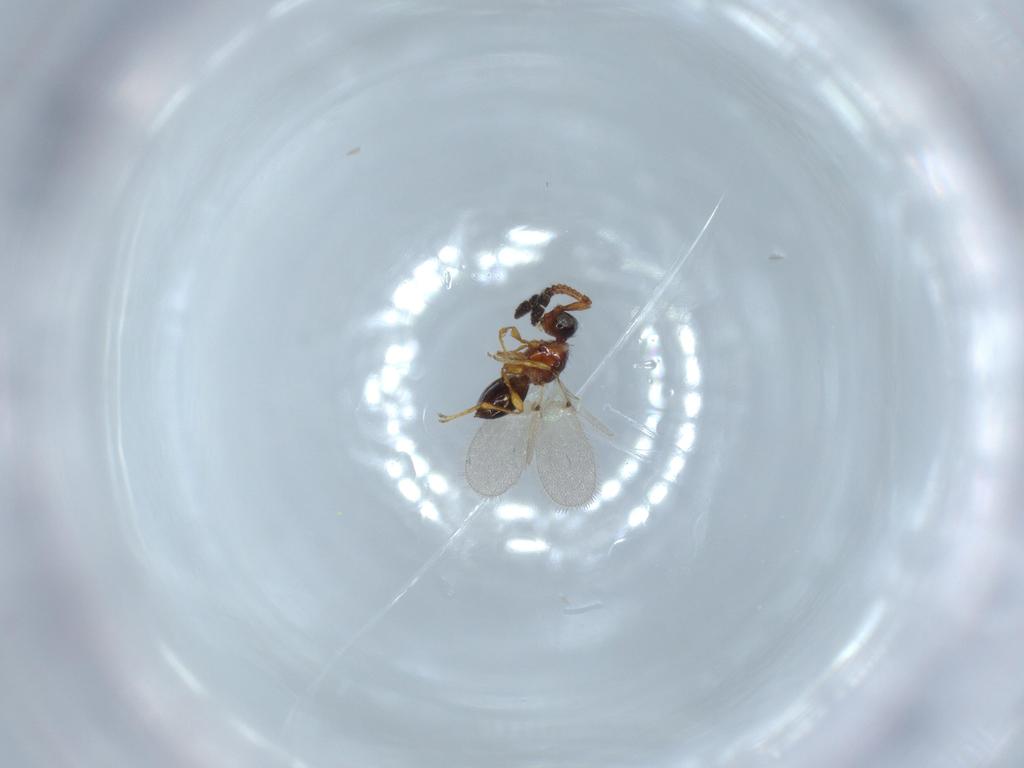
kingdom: Animalia
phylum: Arthropoda
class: Insecta
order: Hymenoptera
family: Diapriidae
